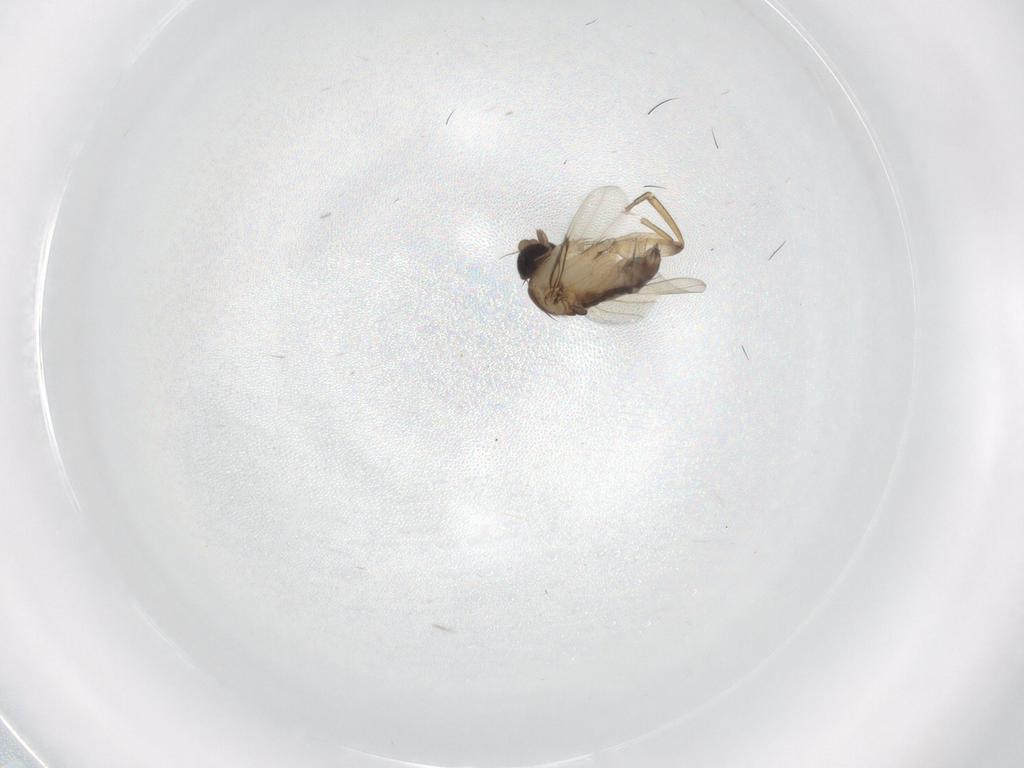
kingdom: Animalia
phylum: Arthropoda
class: Insecta
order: Diptera
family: Phoridae
